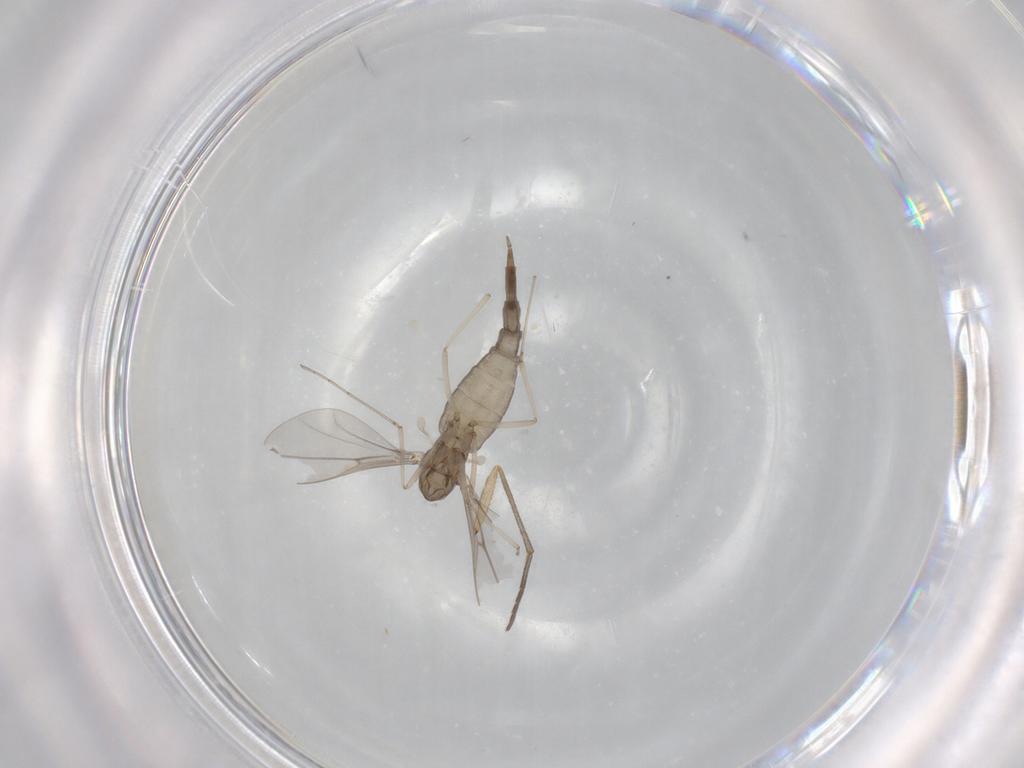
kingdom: Animalia
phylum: Arthropoda
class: Insecta
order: Diptera
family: Cecidomyiidae
